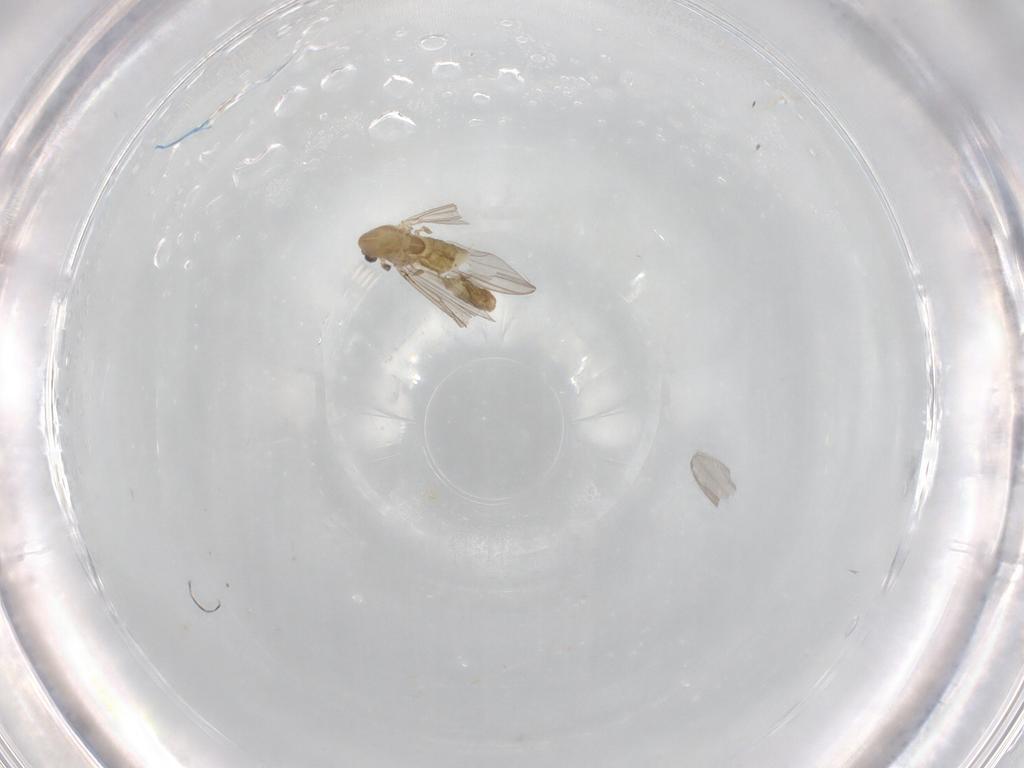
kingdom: Animalia
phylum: Arthropoda
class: Insecta
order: Diptera
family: Chironomidae
